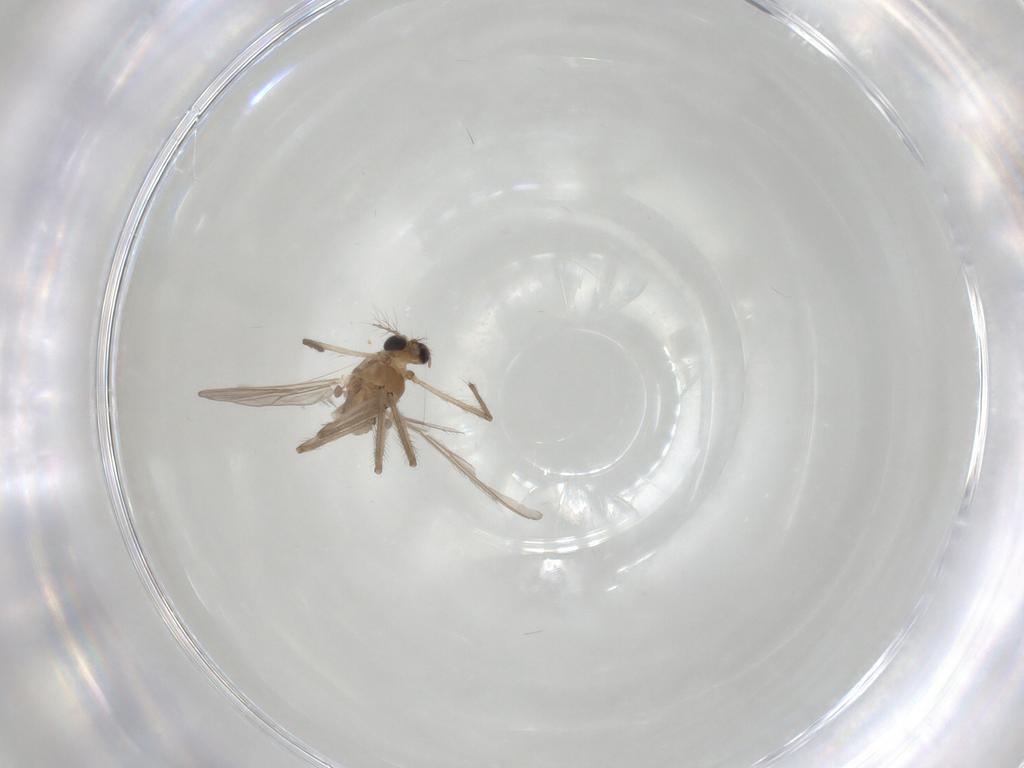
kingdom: Animalia
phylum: Arthropoda
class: Insecta
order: Diptera
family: Chironomidae
